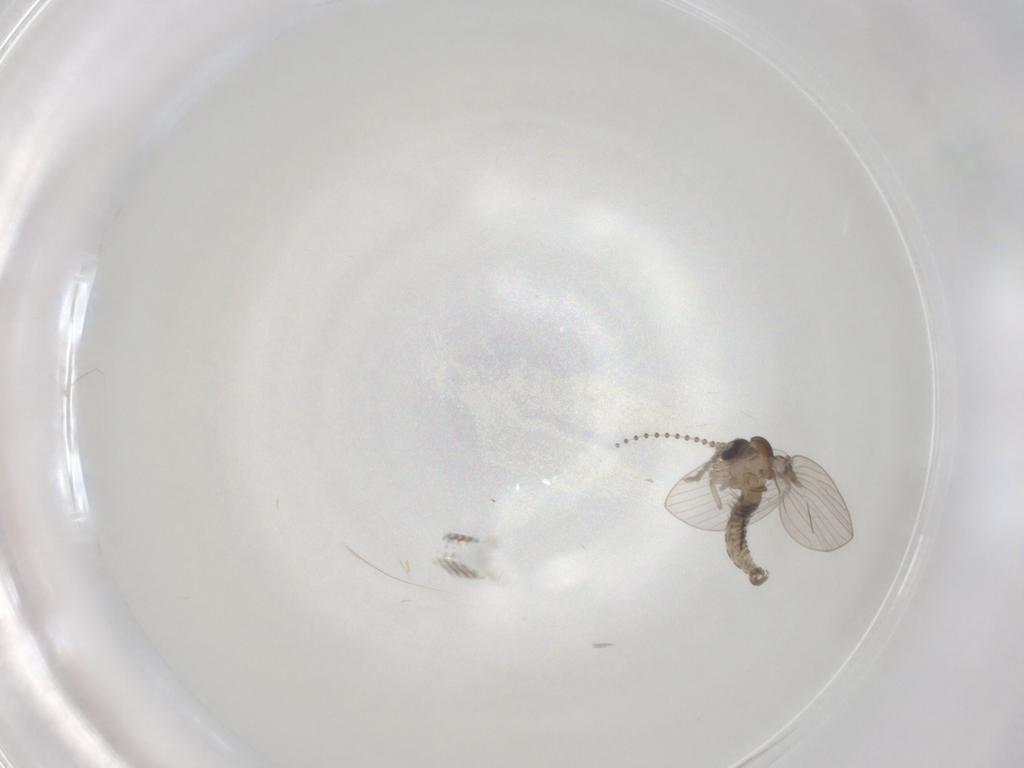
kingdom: Animalia
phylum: Arthropoda
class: Insecta
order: Diptera
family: Psychodidae
